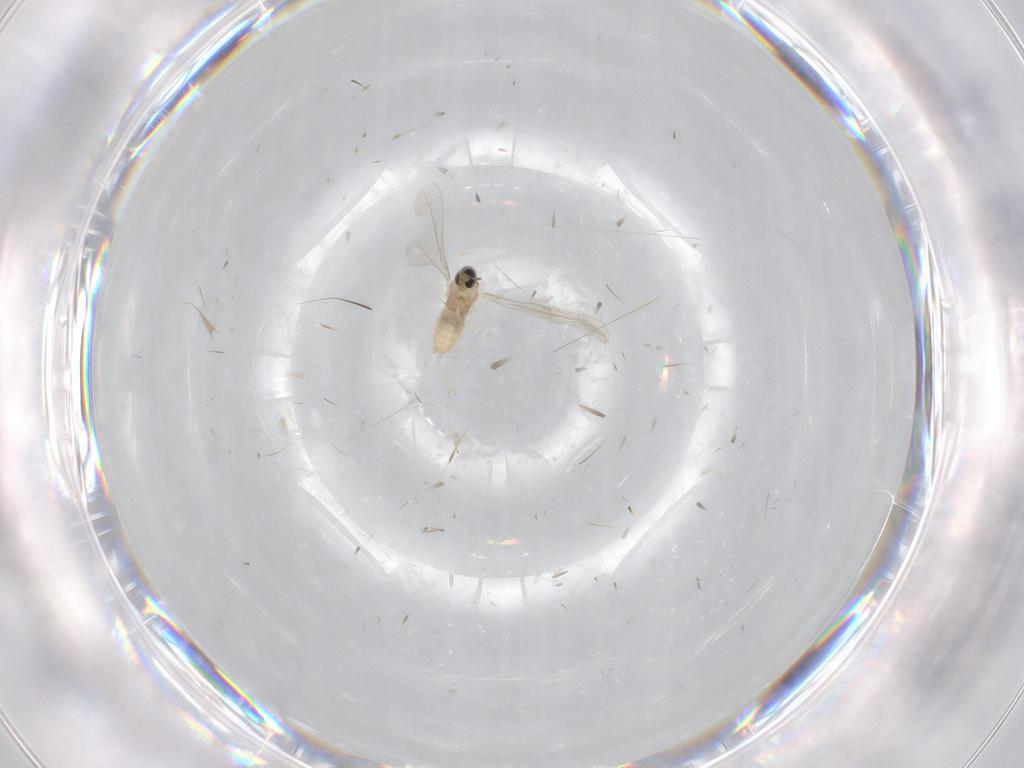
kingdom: Animalia
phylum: Arthropoda
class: Insecta
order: Diptera
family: Cecidomyiidae
